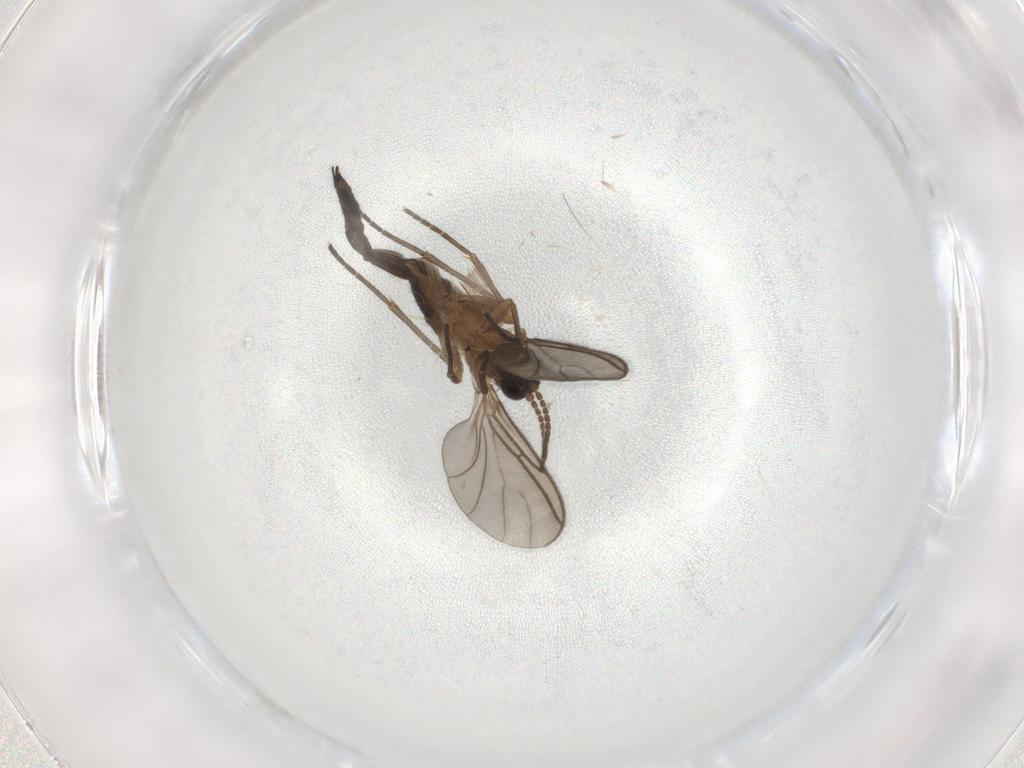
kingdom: Animalia
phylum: Arthropoda
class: Insecta
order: Diptera
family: Sciaridae
